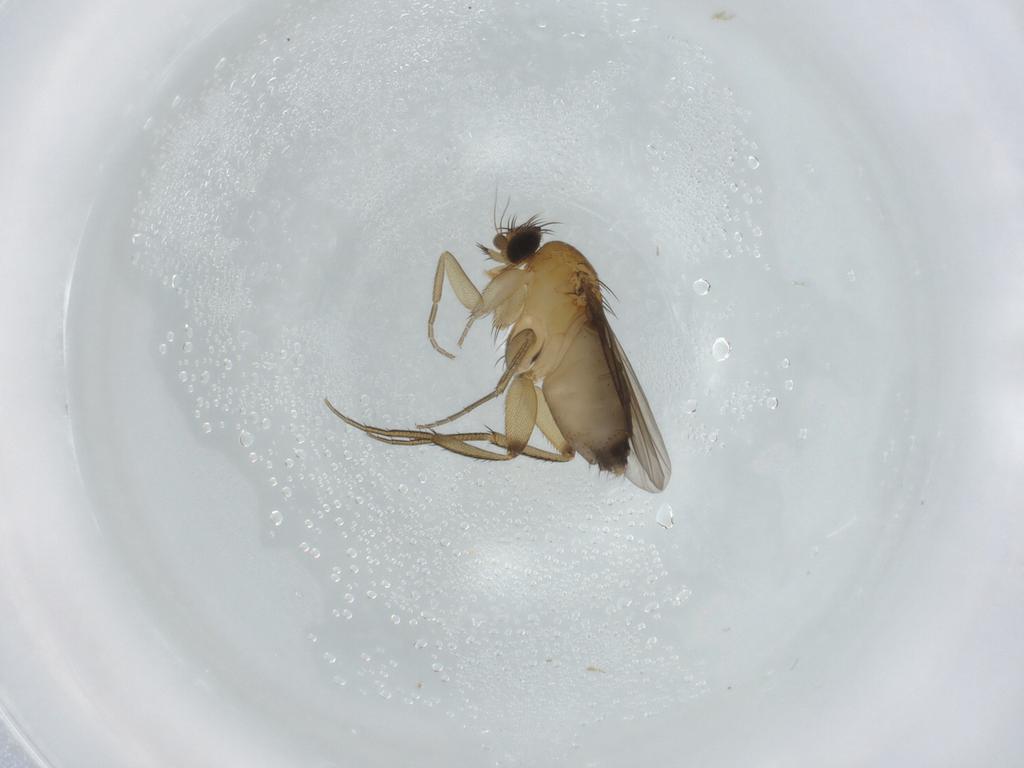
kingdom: Animalia
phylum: Arthropoda
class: Insecta
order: Diptera
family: Phoridae
